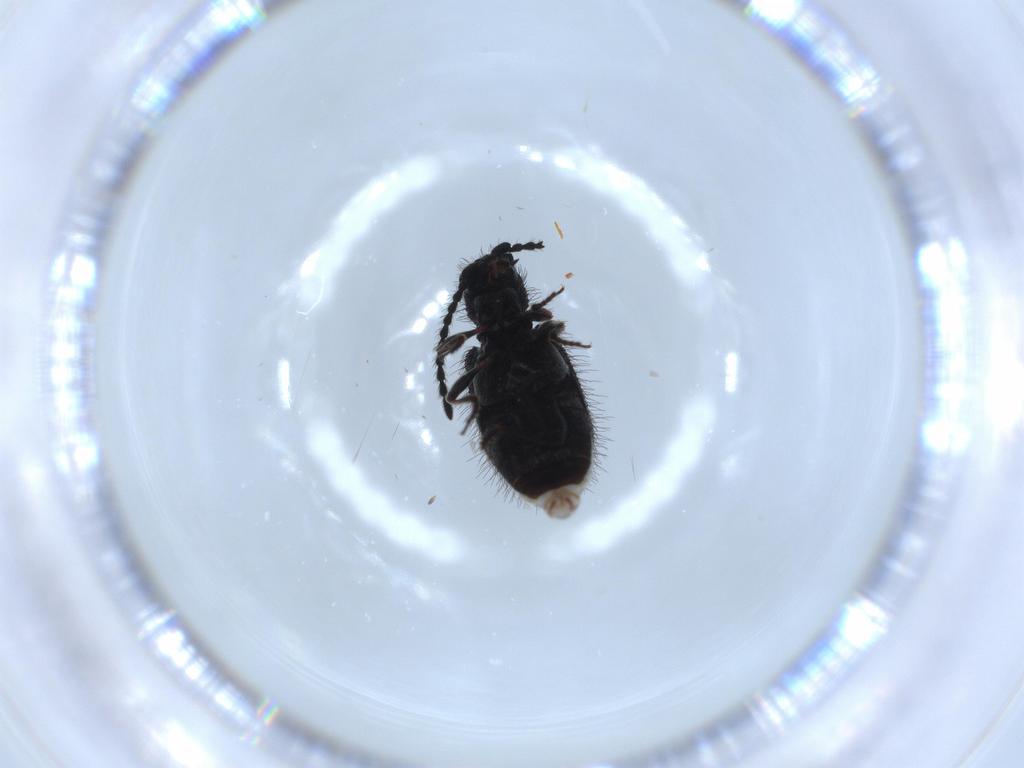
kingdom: Animalia
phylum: Arthropoda
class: Insecta
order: Coleoptera
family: Ptinidae
